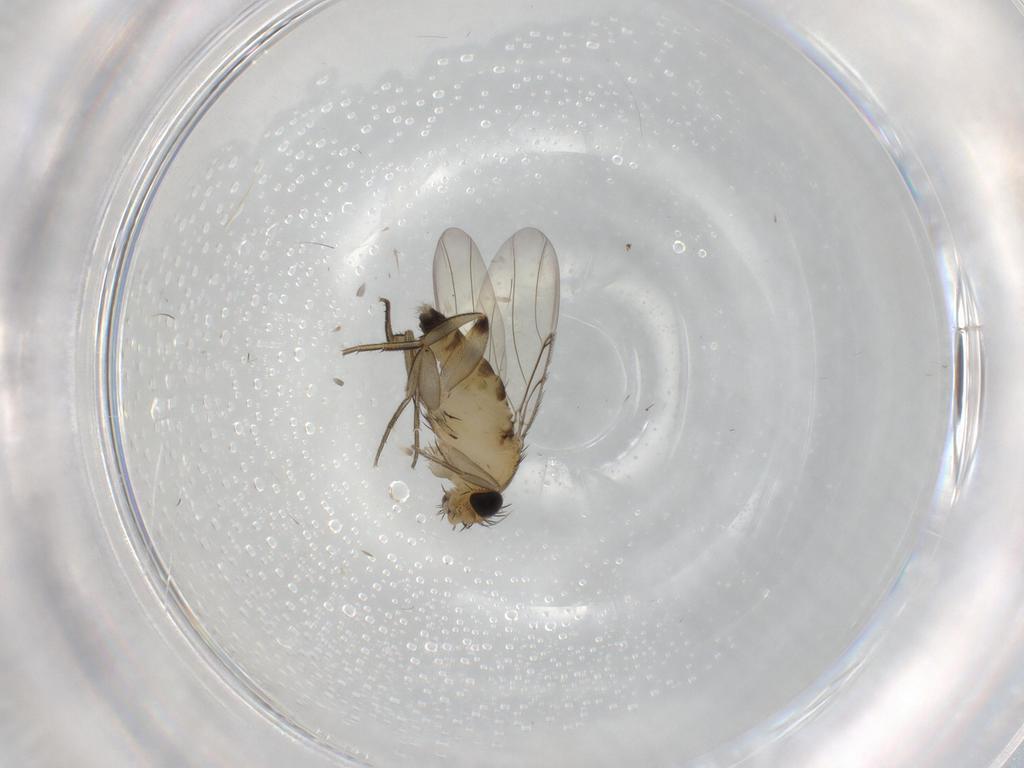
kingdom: Animalia
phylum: Arthropoda
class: Insecta
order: Diptera
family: Phoridae
